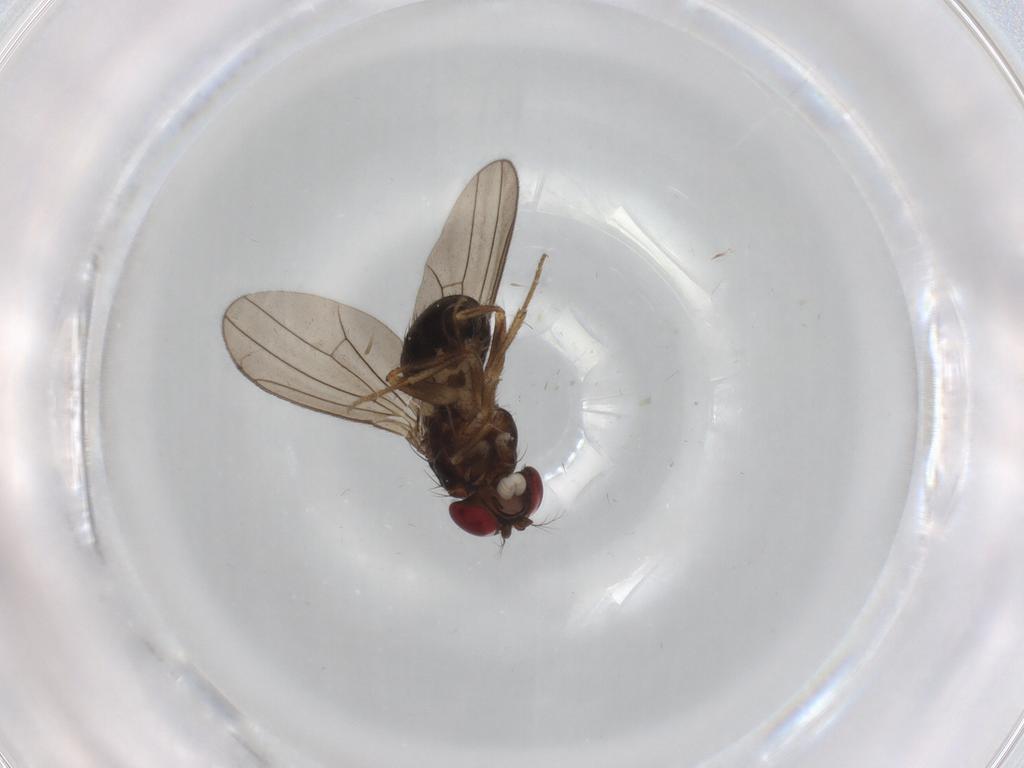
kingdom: Animalia
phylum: Arthropoda
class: Insecta
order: Diptera
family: Drosophilidae
